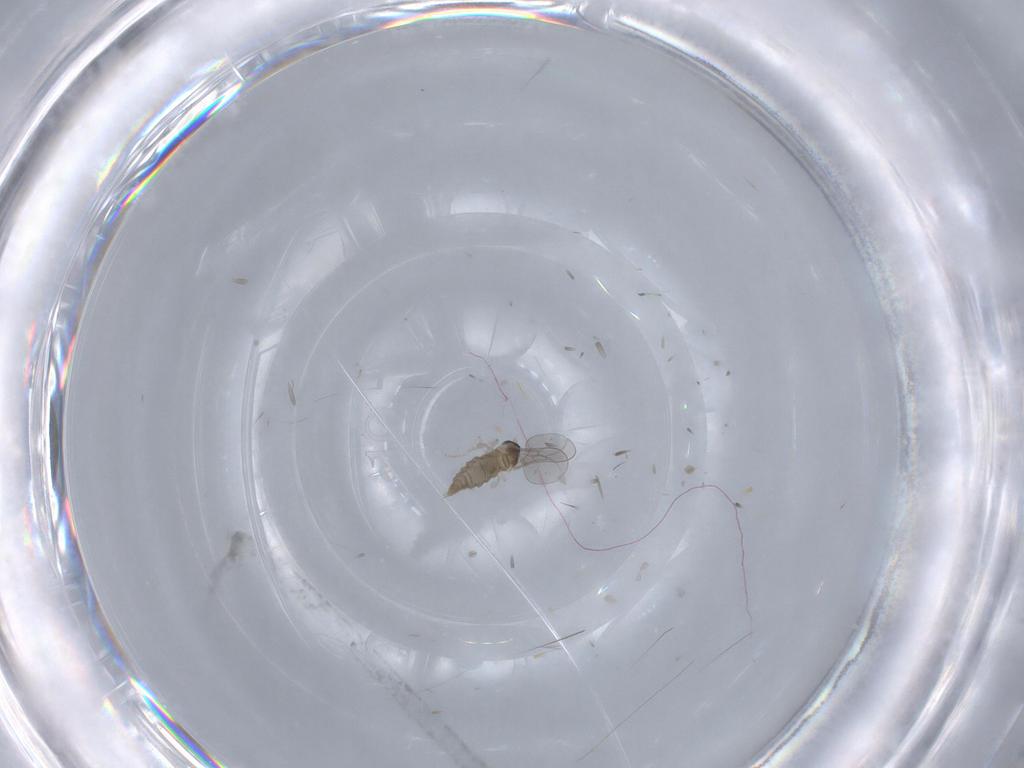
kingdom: Animalia
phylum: Arthropoda
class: Insecta
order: Diptera
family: Chloropidae
